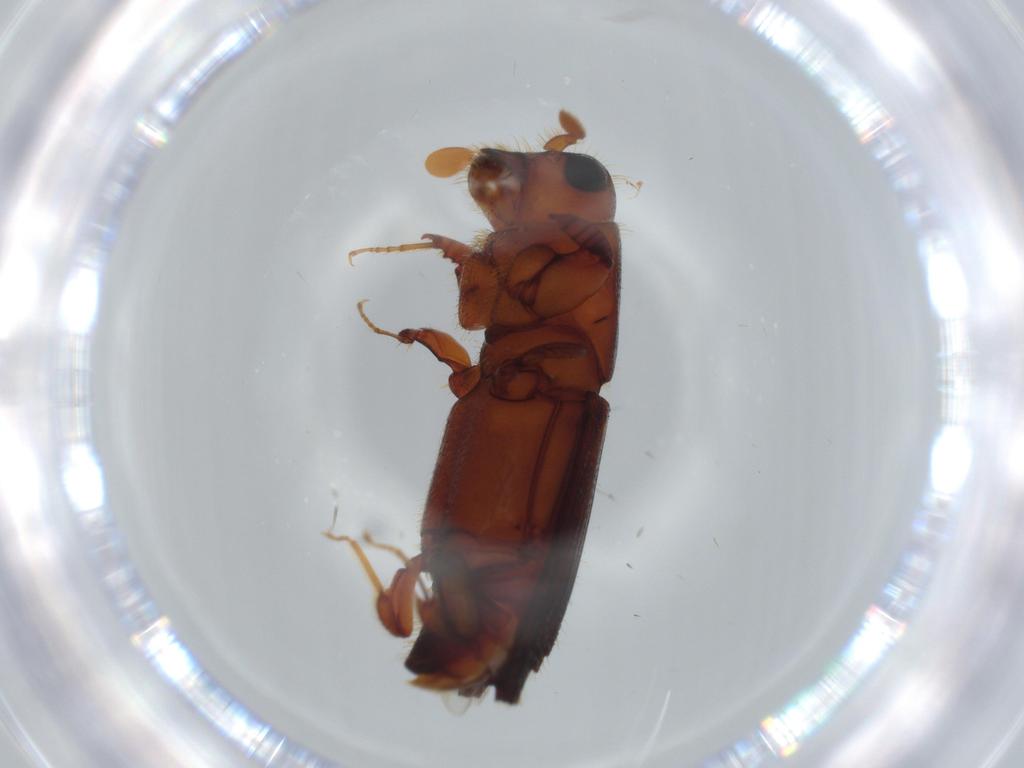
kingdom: Animalia
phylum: Arthropoda
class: Insecta
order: Coleoptera
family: Curculionidae
